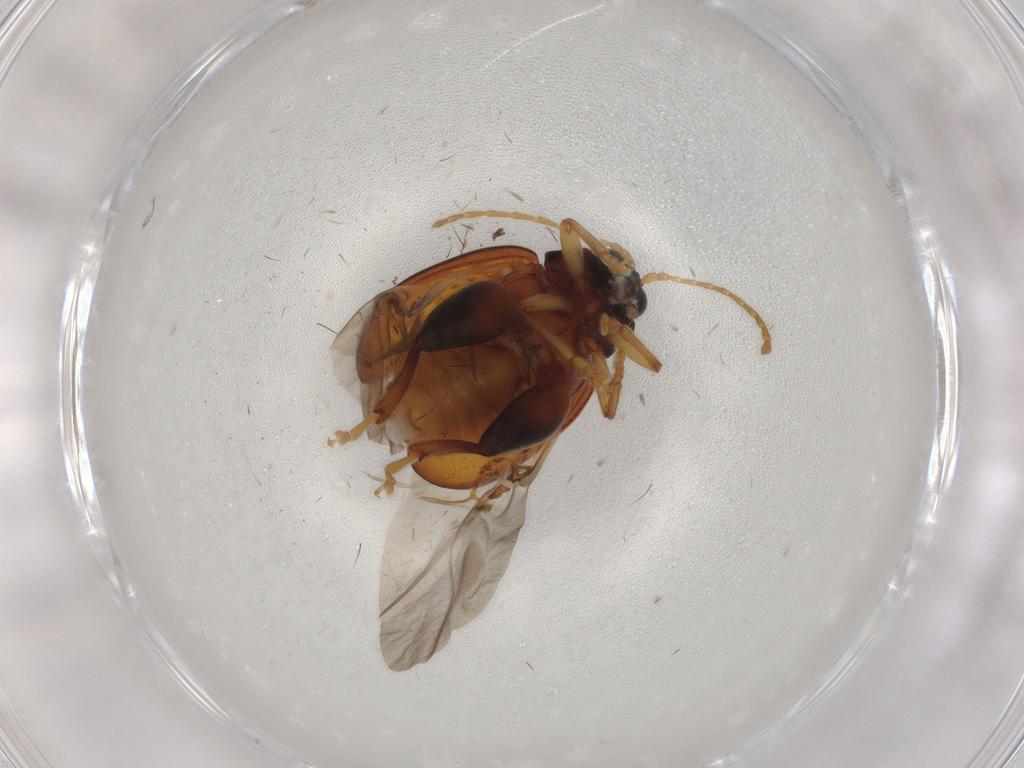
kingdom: Animalia
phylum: Arthropoda
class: Insecta
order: Coleoptera
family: Chrysomelidae
